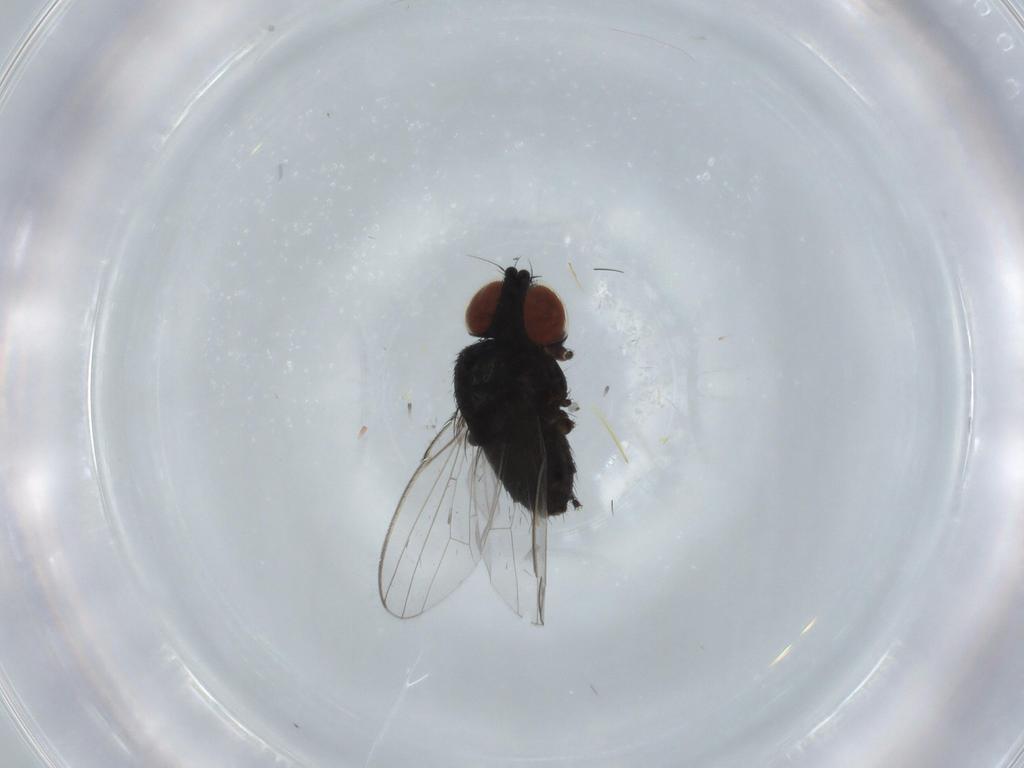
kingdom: Animalia
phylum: Arthropoda
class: Insecta
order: Diptera
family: Milichiidae
